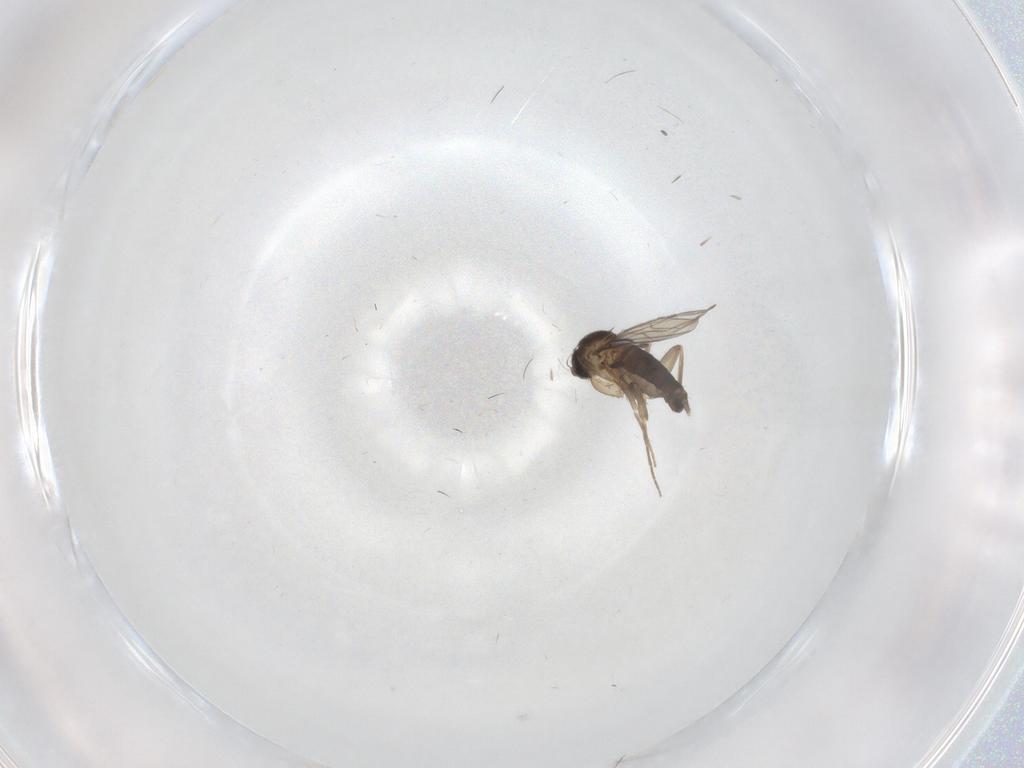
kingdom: Animalia
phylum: Arthropoda
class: Insecta
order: Diptera
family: Phoridae
